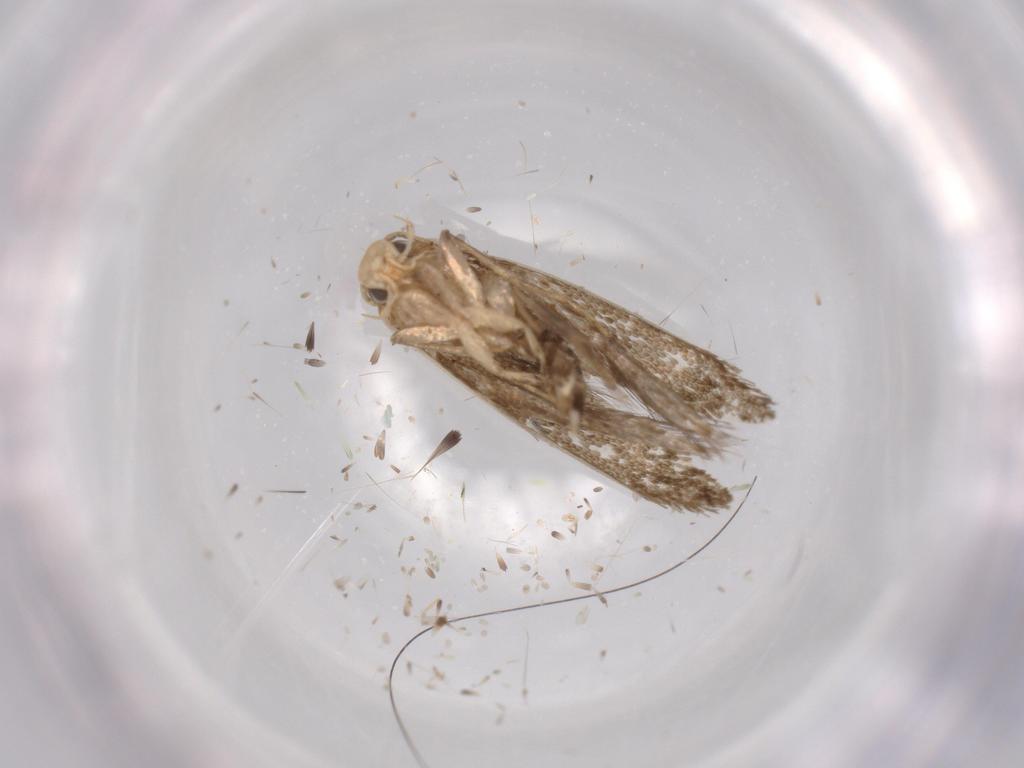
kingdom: Animalia
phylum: Arthropoda
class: Insecta
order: Lepidoptera
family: Tineidae
